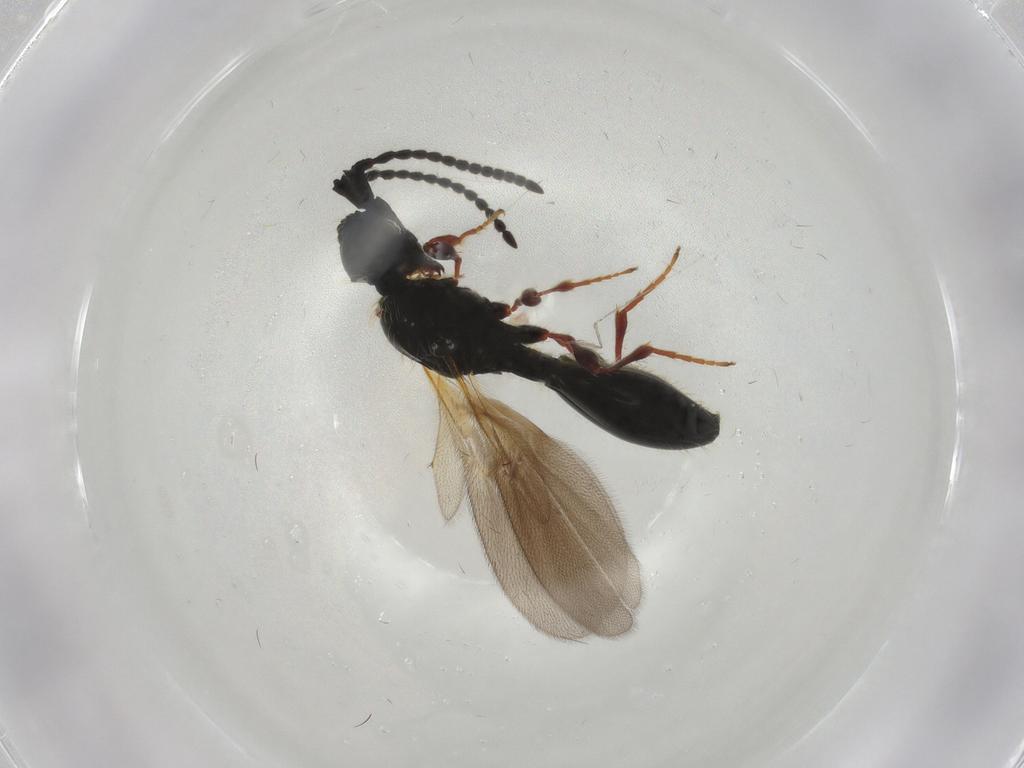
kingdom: Animalia
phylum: Arthropoda
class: Insecta
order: Hymenoptera
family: Diapriidae
